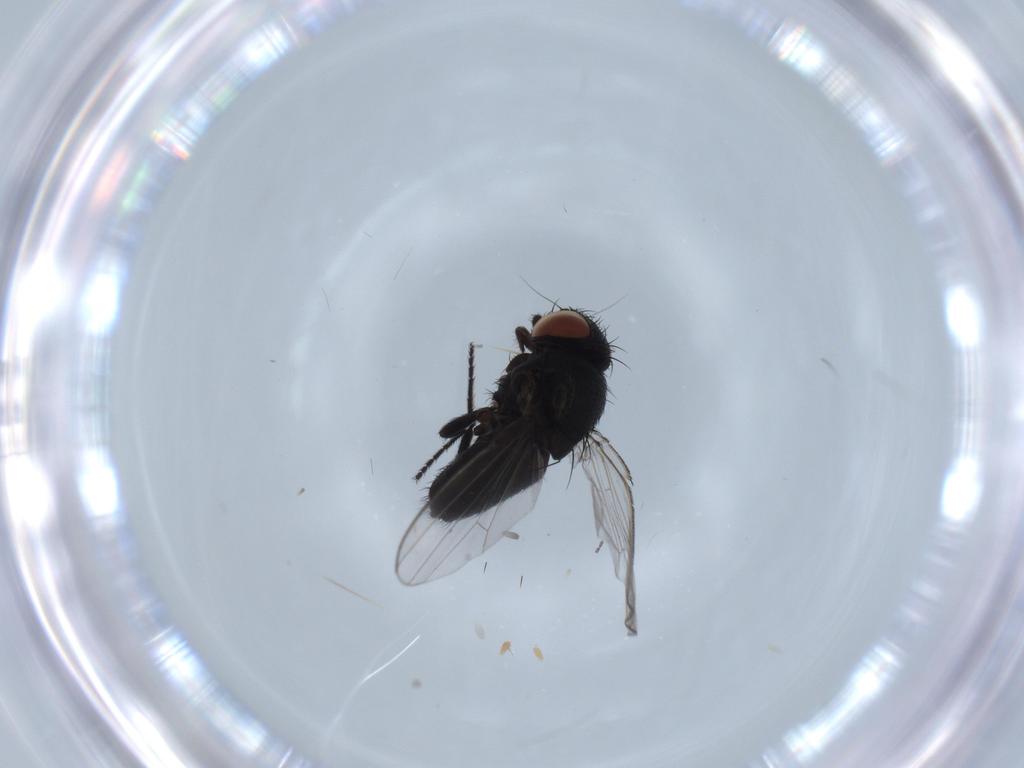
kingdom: Animalia
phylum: Arthropoda
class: Insecta
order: Diptera
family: Milichiidae
